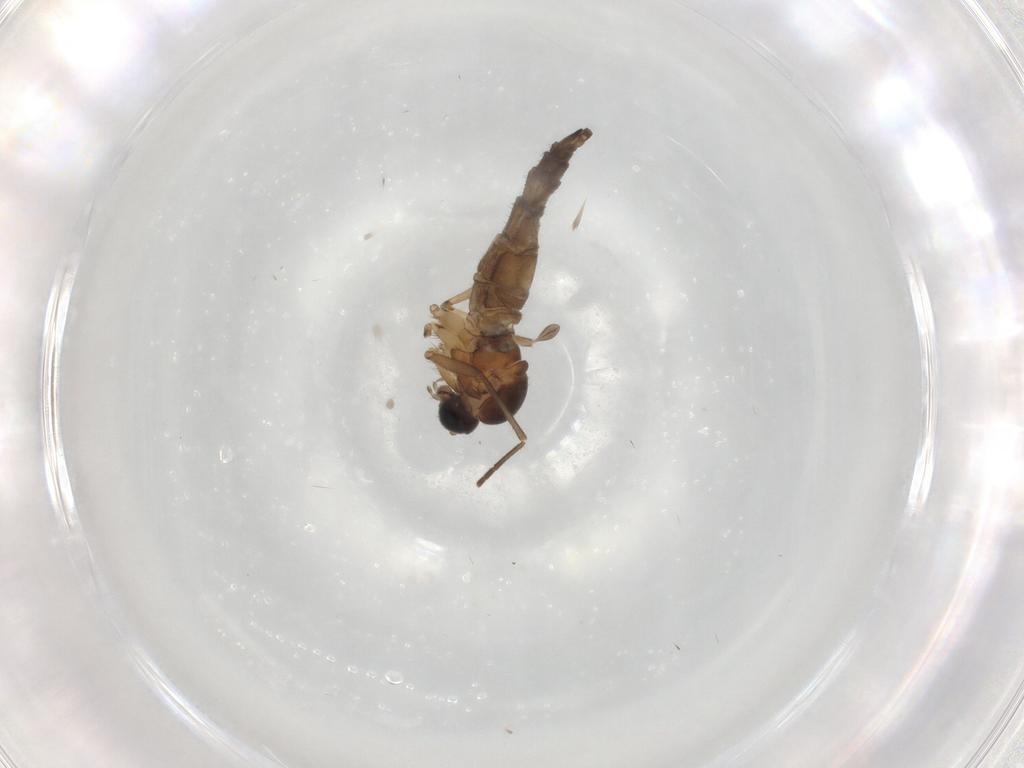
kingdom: Animalia
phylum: Arthropoda
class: Insecta
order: Diptera
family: Sciaridae
